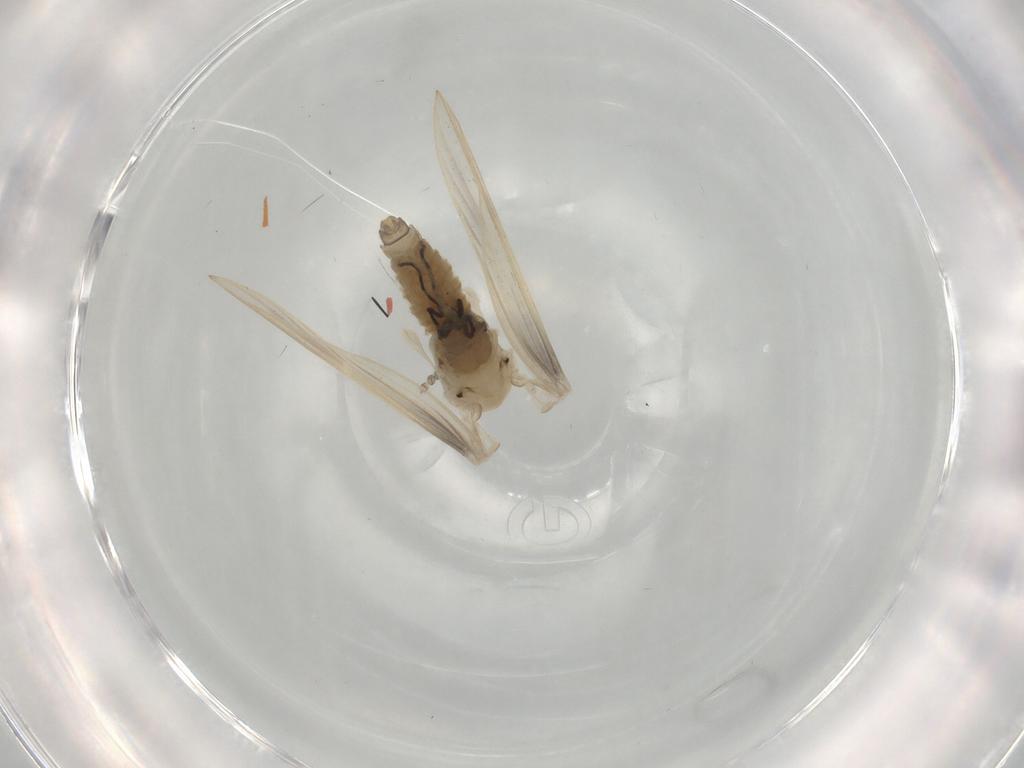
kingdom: Animalia
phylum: Arthropoda
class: Insecta
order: Diptera
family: Psychodidae
